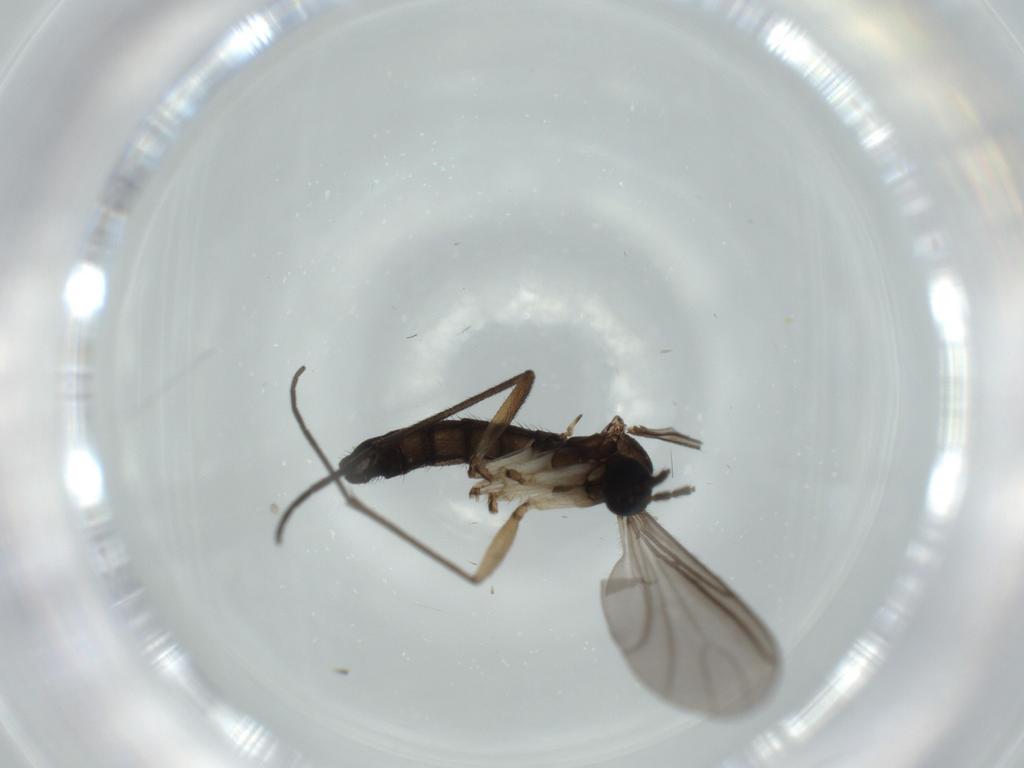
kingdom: Animalia
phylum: Arthropoda
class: Insecta
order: Diptera
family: Sciaridae
